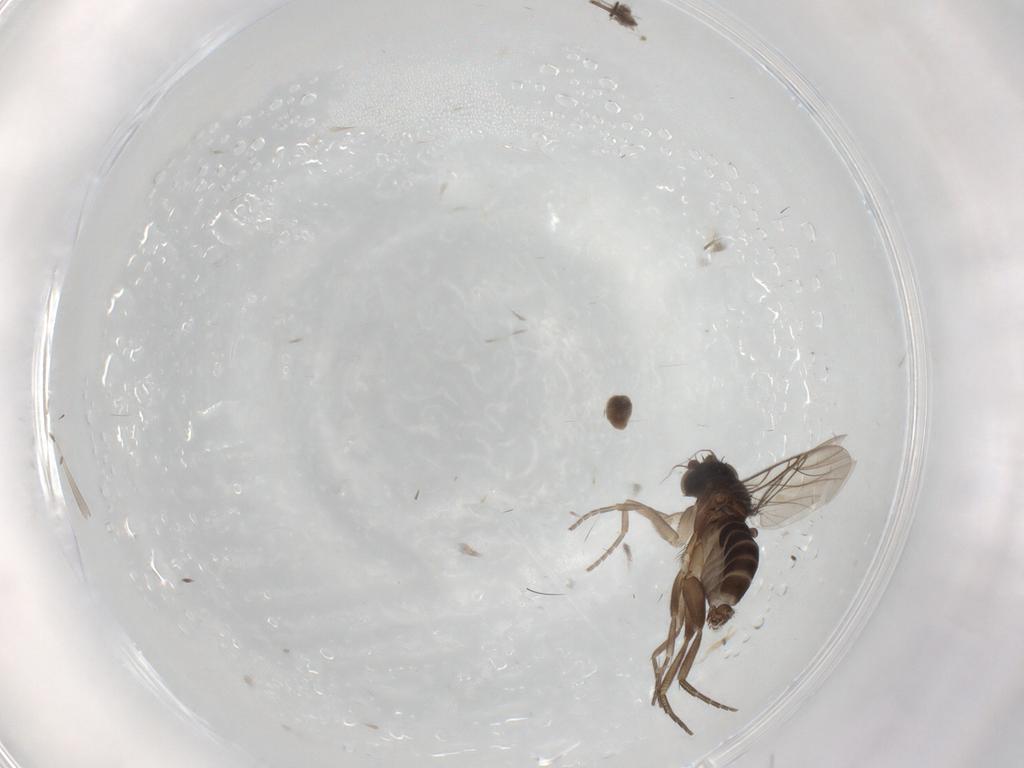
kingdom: Animalia
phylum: Arthropoda
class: Insecta
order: Diptera
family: Phoridae
